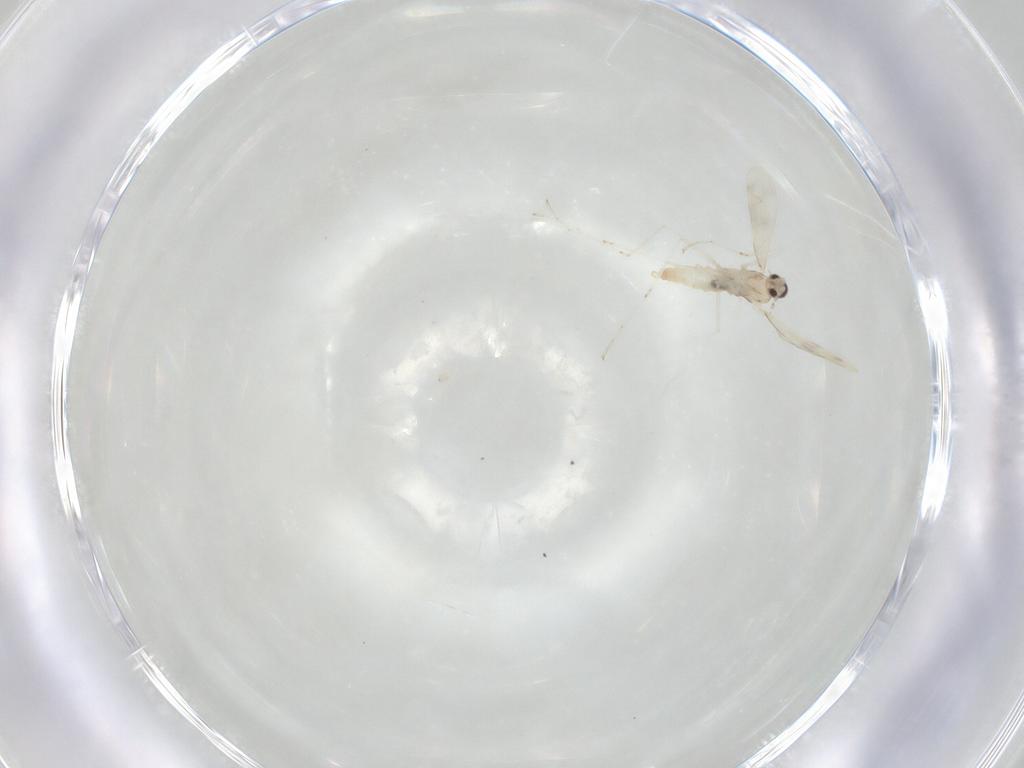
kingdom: Animalia
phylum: Arthropoda
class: Insecta
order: Diptera
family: Cecidomyiidae
